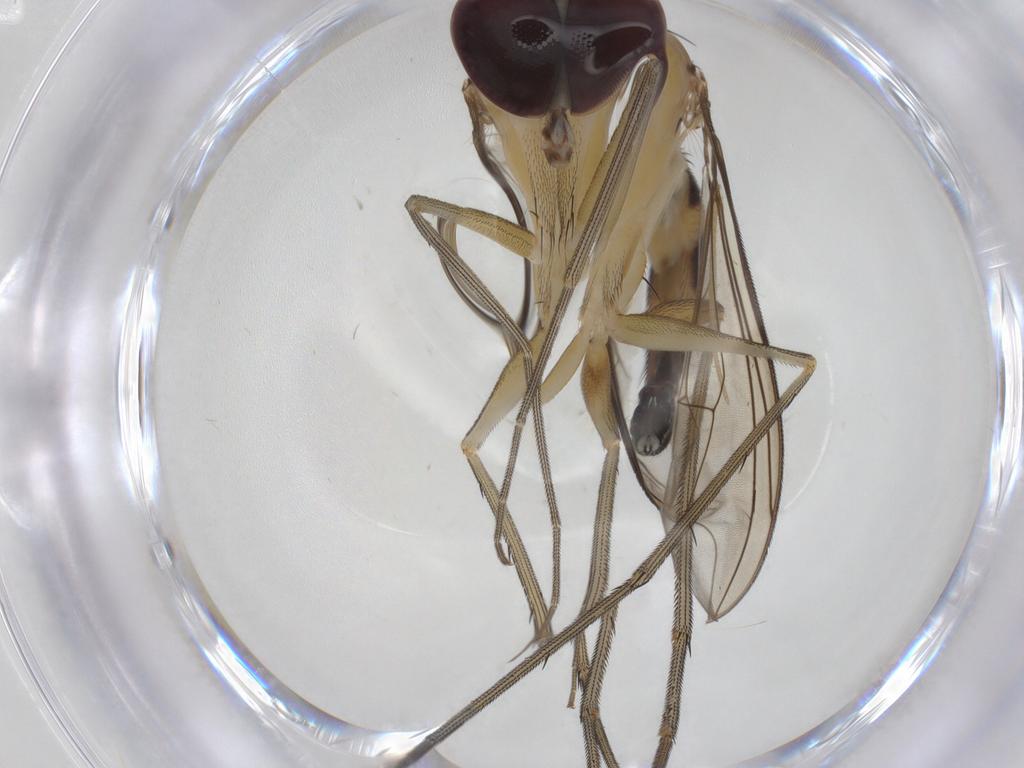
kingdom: Animalia
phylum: Arthropoda
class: Insecta
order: Diptera
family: Dolichopodidae
